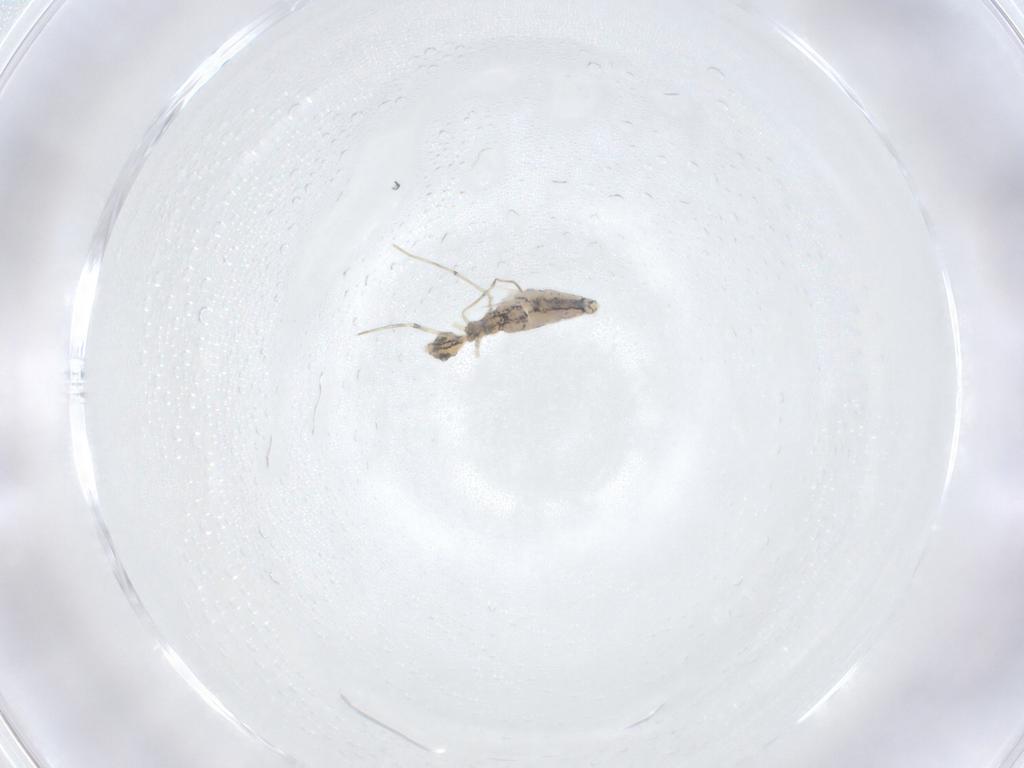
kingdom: Animalia
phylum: Arthropoda
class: Collembola
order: Entomobryomorpha
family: Paronellidae
